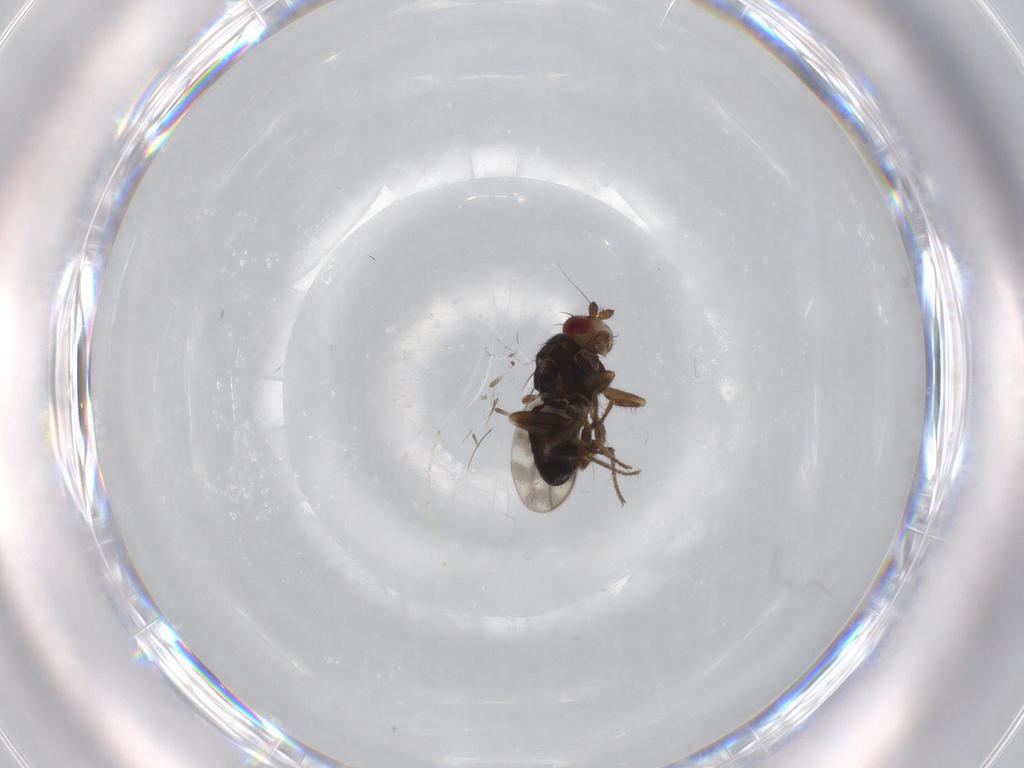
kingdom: Animalia
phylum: Arthropoda
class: Insecta
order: Diptera
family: Sphaeroceridae
